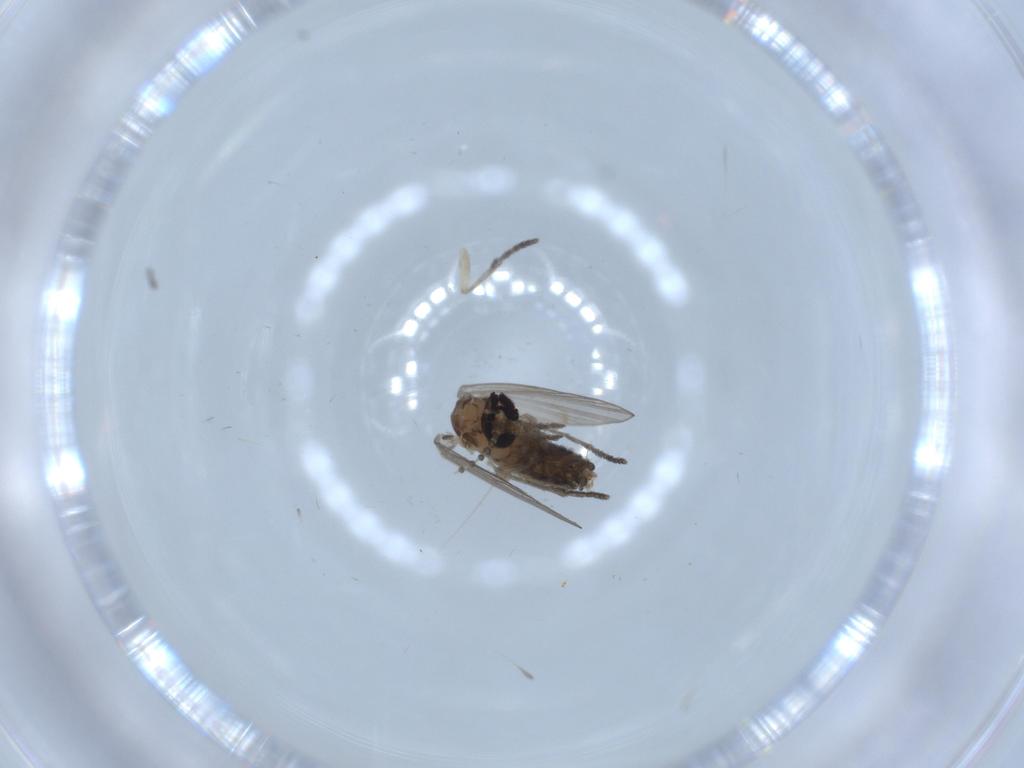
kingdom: Animalia
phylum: Arthropoda
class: Insecta
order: Diptera
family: Psychodidae
